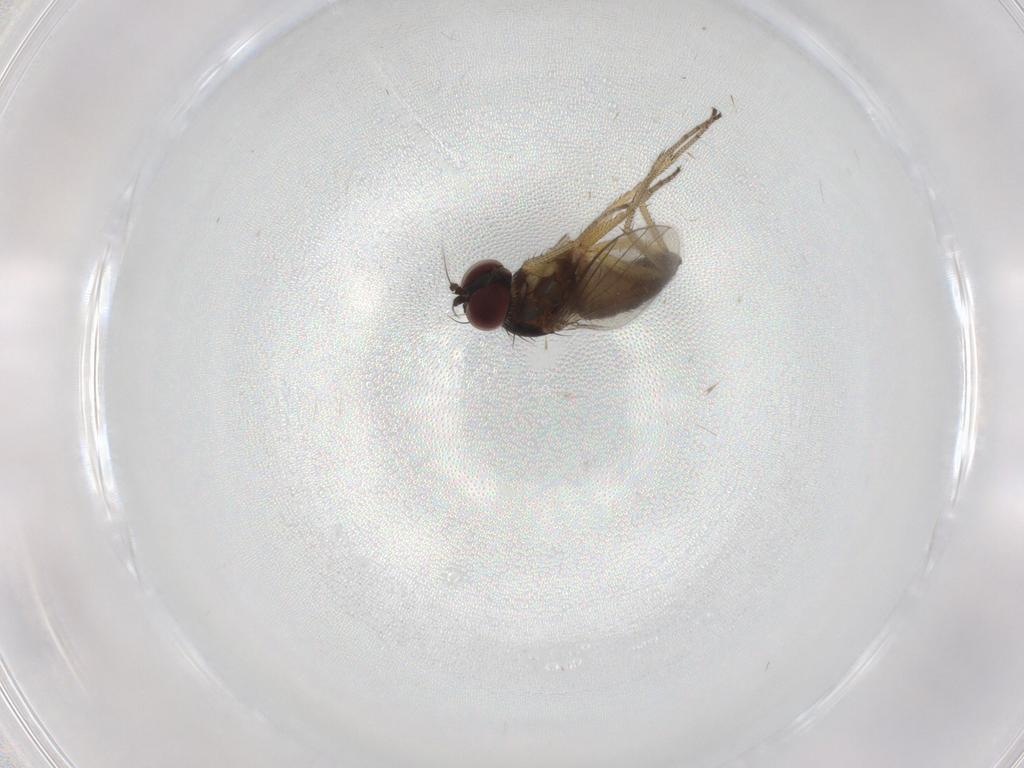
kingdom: Animalia
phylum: Arthropoda
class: Insecta
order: Diptera
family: Dolichopodidae
